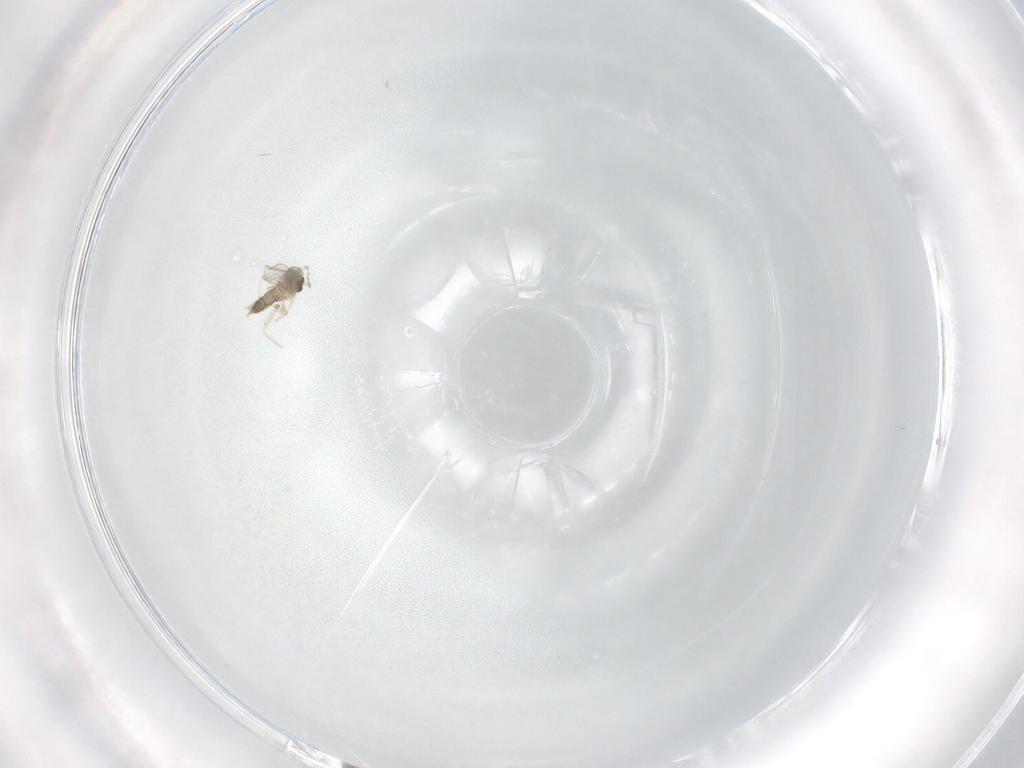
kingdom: Animalia
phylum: Arthropoda
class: Insecta
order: Diptera
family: Cecidomyiidae
